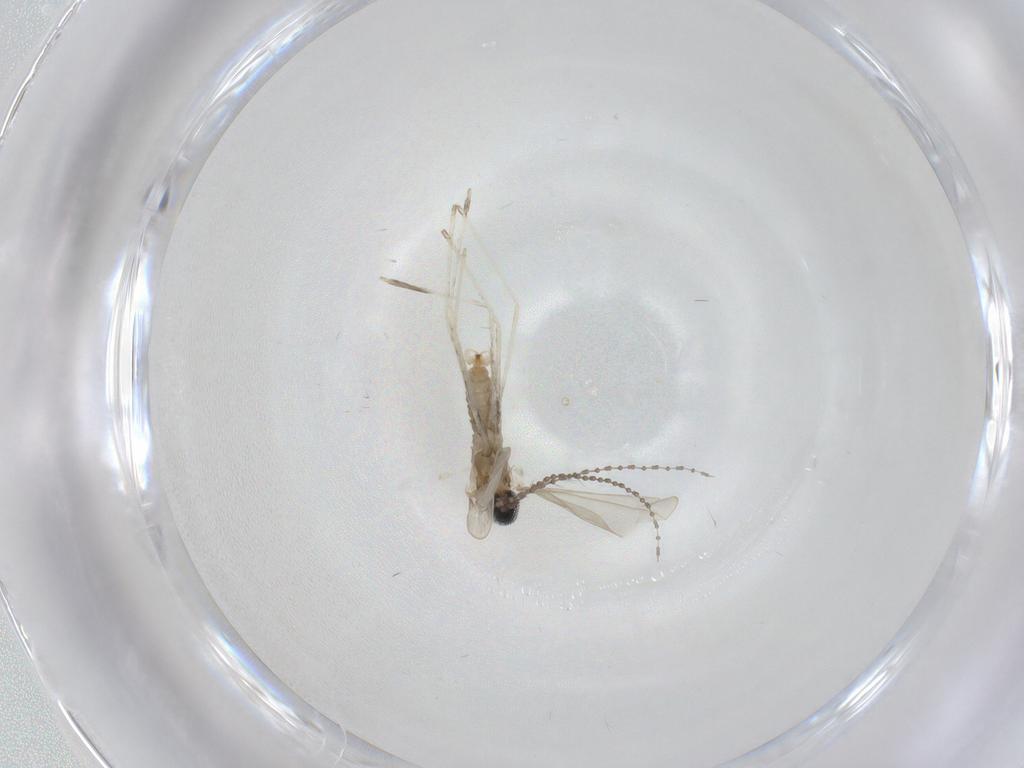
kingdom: Animalia
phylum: Arthropoda
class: Insecta
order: Diptera
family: Cecidomyiidae
